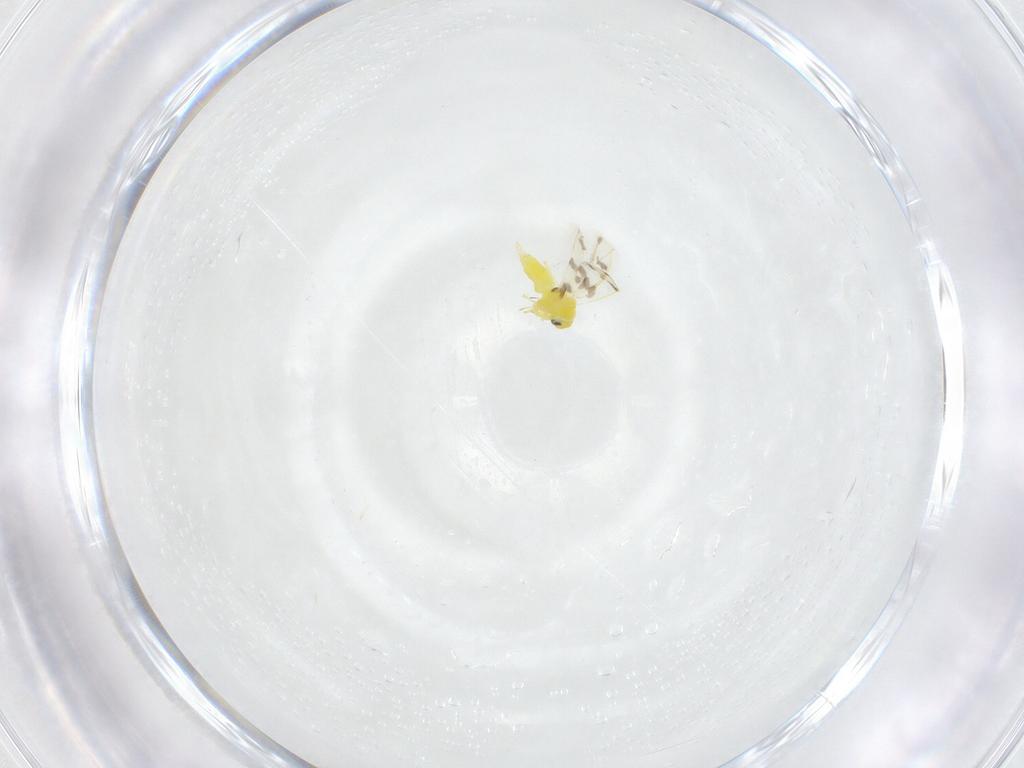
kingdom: Animalia
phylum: Arthropoda
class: Insecta
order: Hemiptera
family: Aleyrodidae
